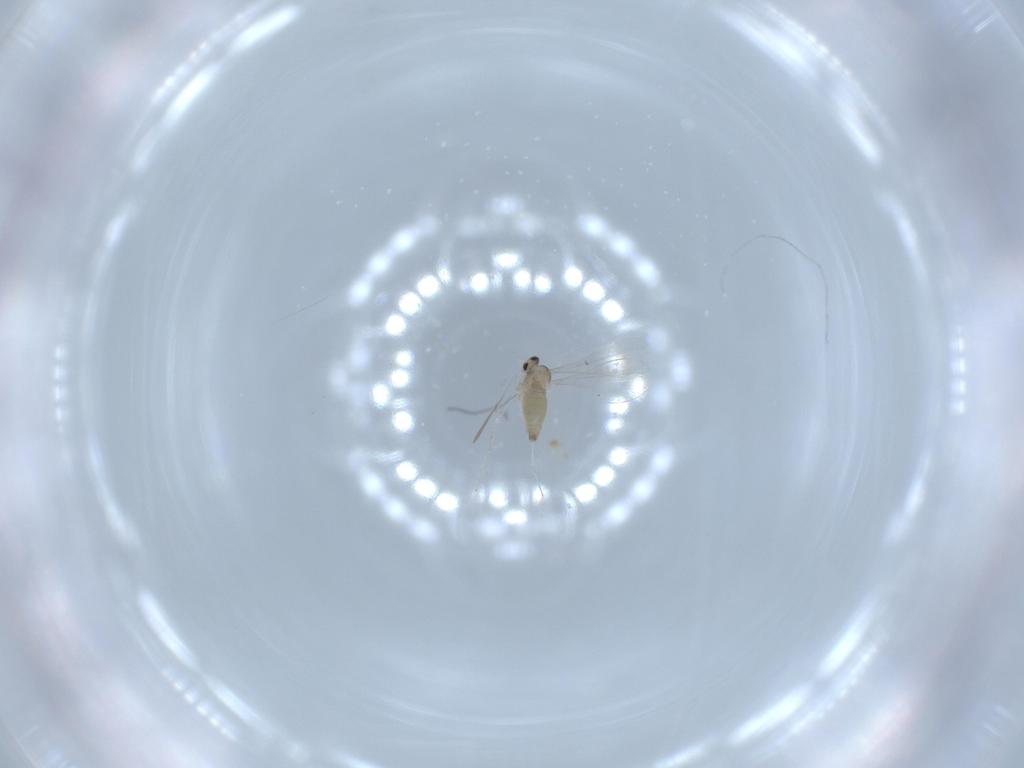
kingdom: Animalia
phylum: Arthropoda
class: Insecta
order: Diptera
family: Cecidomyiidae
